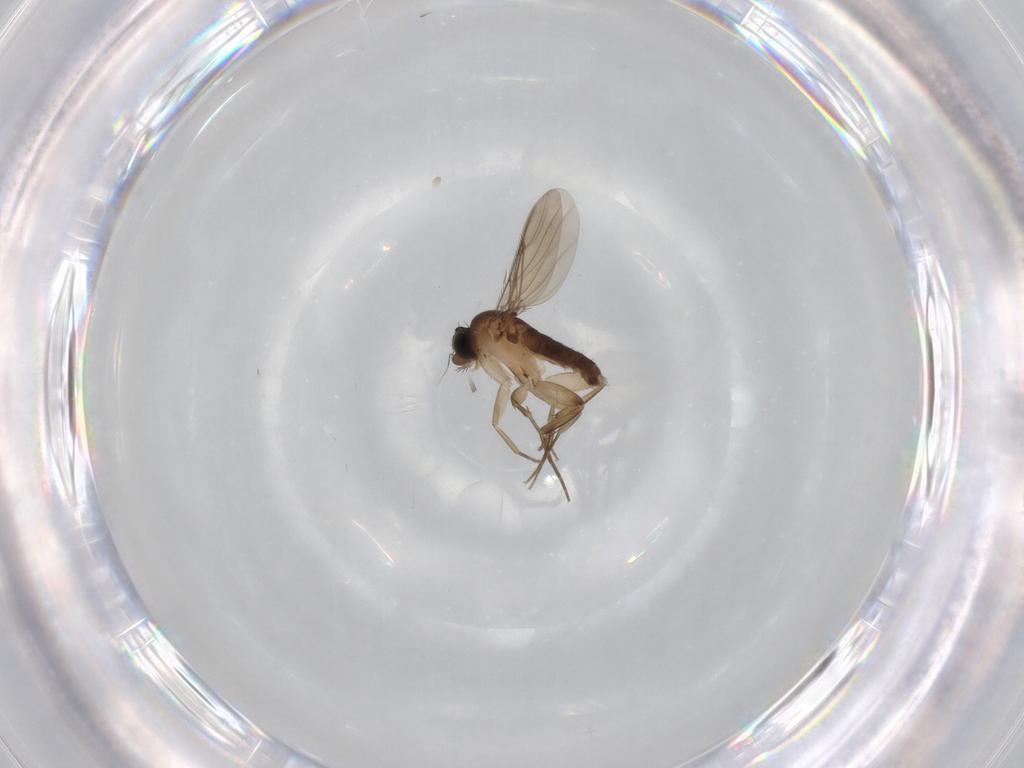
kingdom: Animalia
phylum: Arthropoda
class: Insecta
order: Diptera
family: Phoridae
